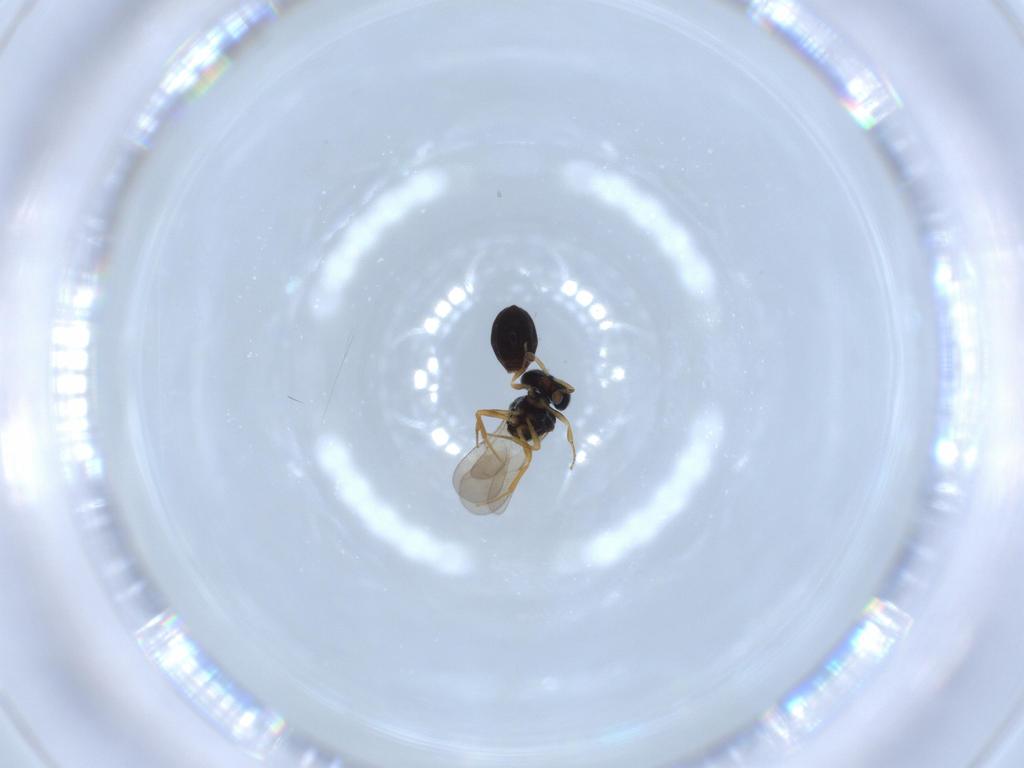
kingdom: Animalia
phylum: Arthropoda
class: Insecta
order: Hymenoptera
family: Scelionidae
